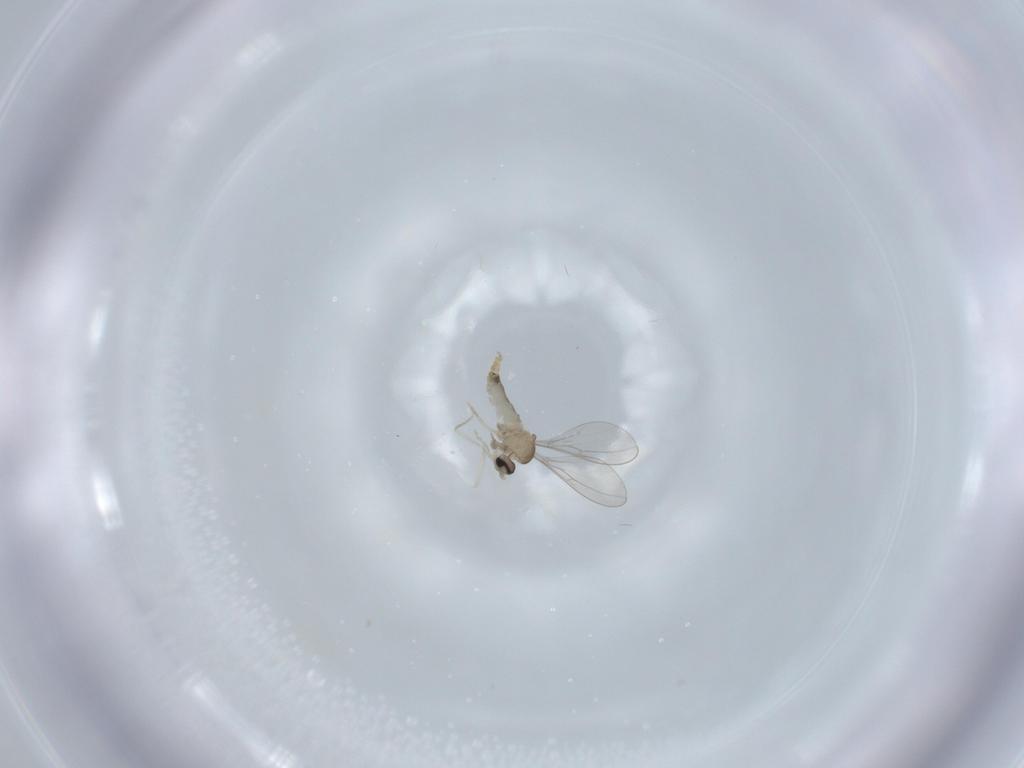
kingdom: Animalia
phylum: Arthropoda
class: Insecta
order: Diptera
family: Cecidomyiidae
